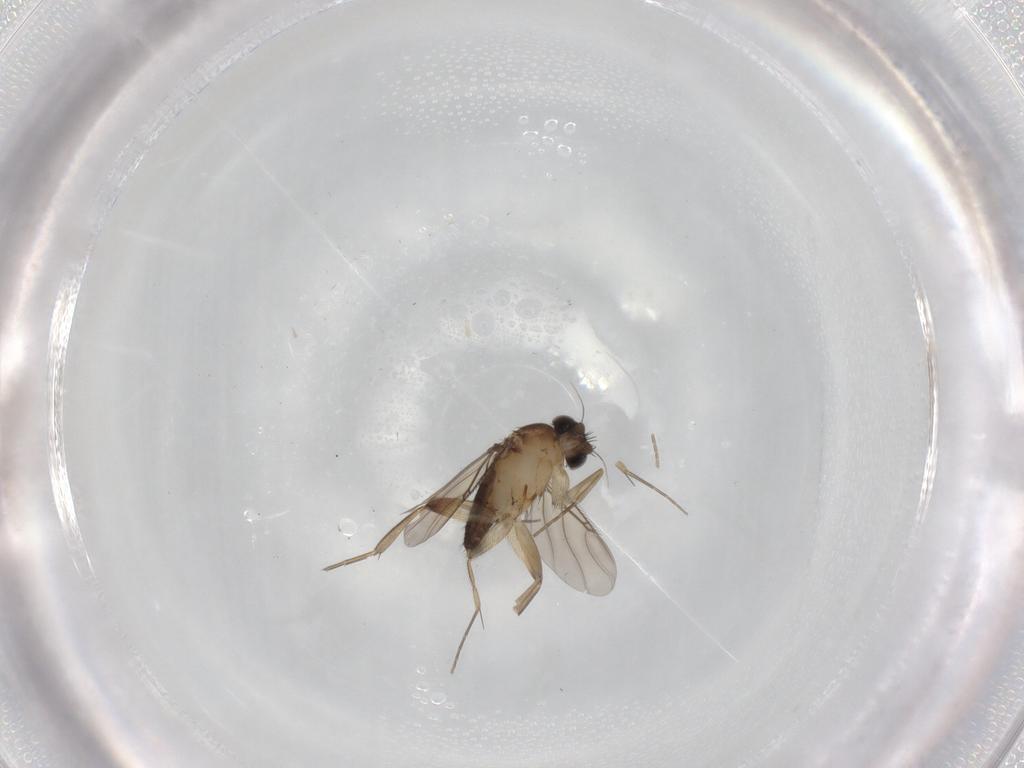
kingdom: Animalia
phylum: Arthropoda
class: Insecta
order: Diptera
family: Phoridae
